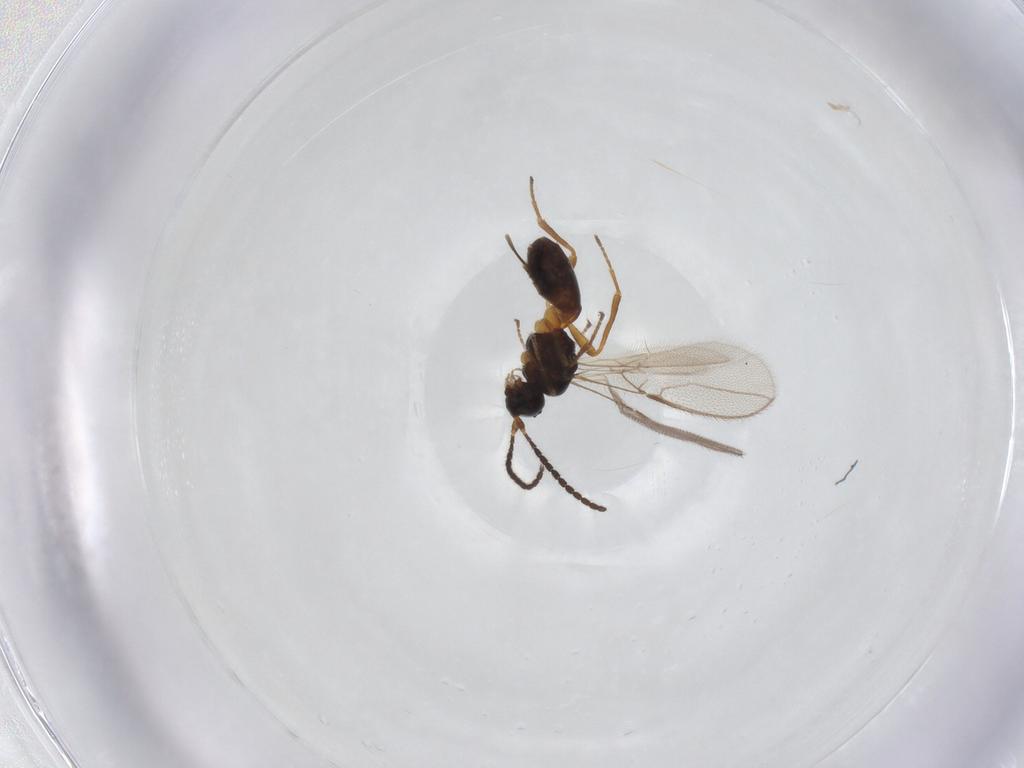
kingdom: Animalia
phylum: Arthropoda
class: Insecta
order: Hymenoptera
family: Braconidae
